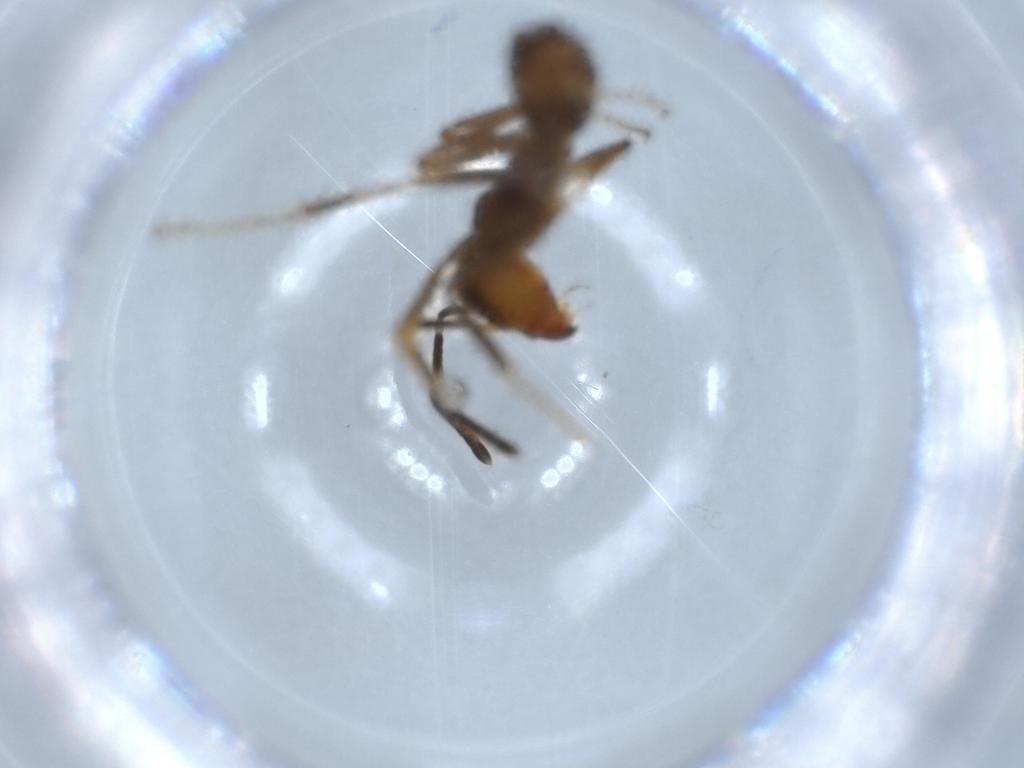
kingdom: Animalia
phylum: Arthropoda
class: Insecta
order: Hymenoptera
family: Formicidae
